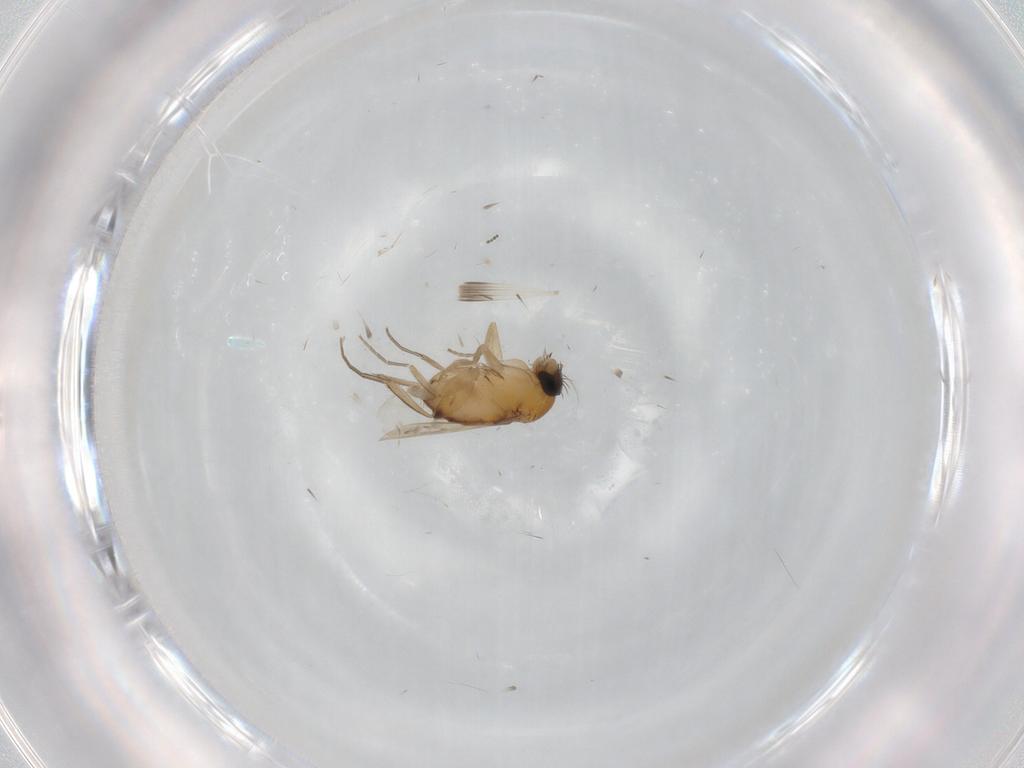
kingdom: Animalia
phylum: Arthropoda
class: Insecta
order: Diptera
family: Phoridae
